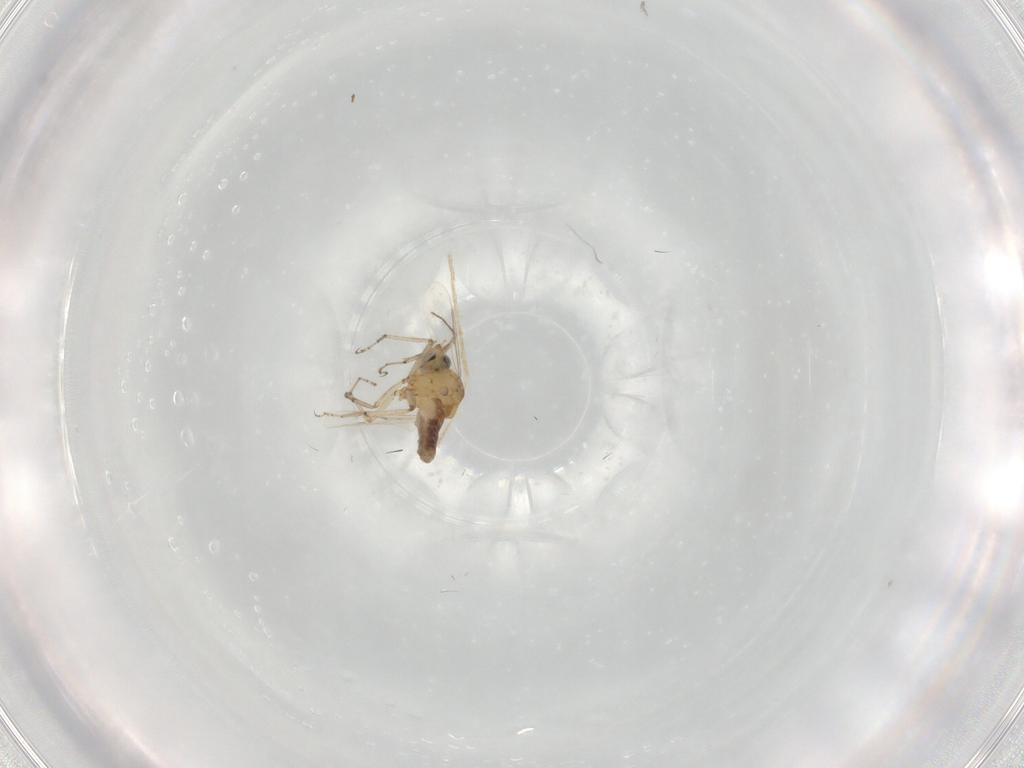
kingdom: Animalia
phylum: Arthropoda
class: Insecta
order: Diptera
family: Ceratopogonidae
